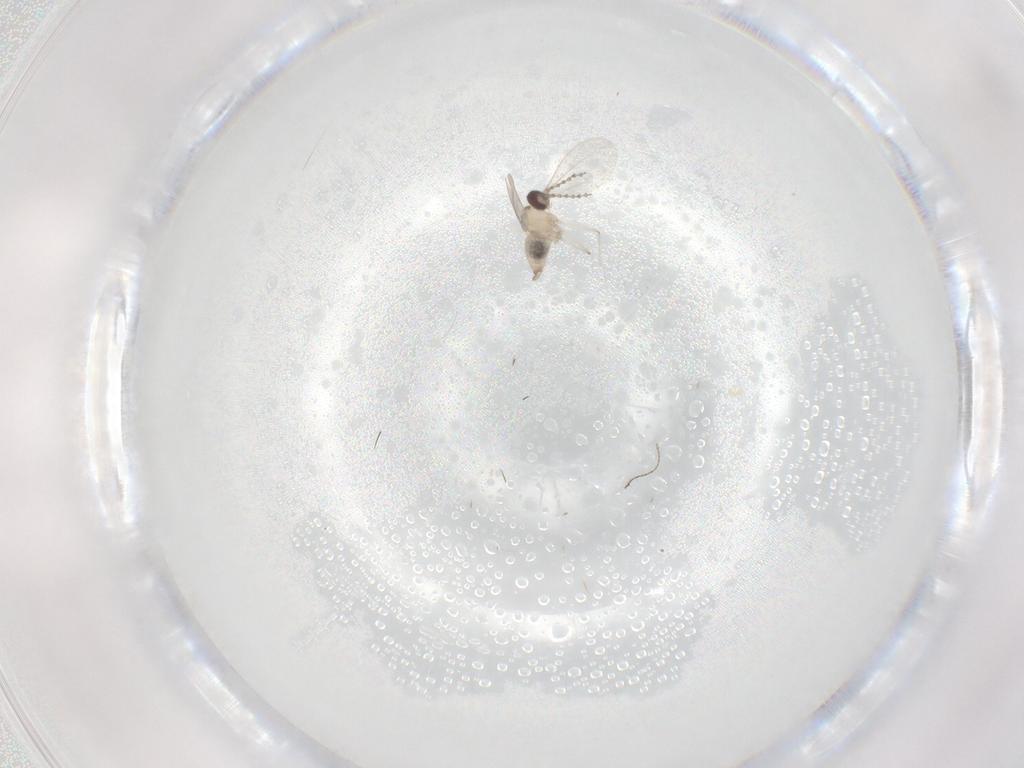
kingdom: Animalia
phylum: Arthropoda
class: Insecta
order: Diptera
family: Ceratopogonidae
